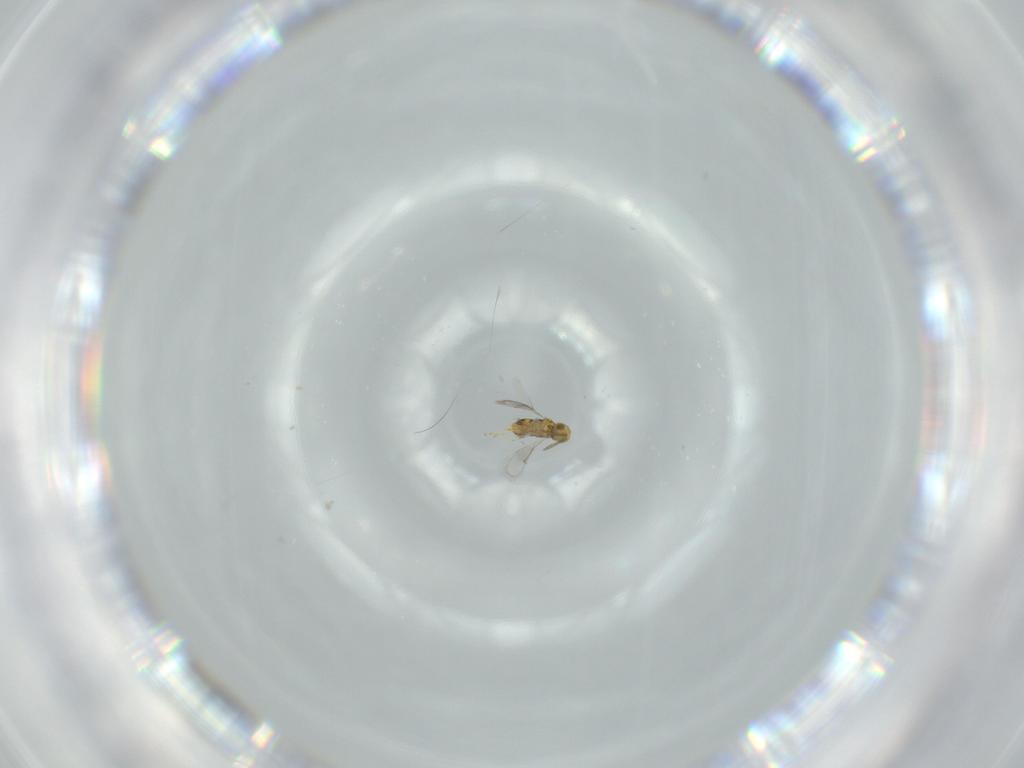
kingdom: Animalia
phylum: Arthropoda
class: Insecta
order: Hymenoptera
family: Aphelinidae
